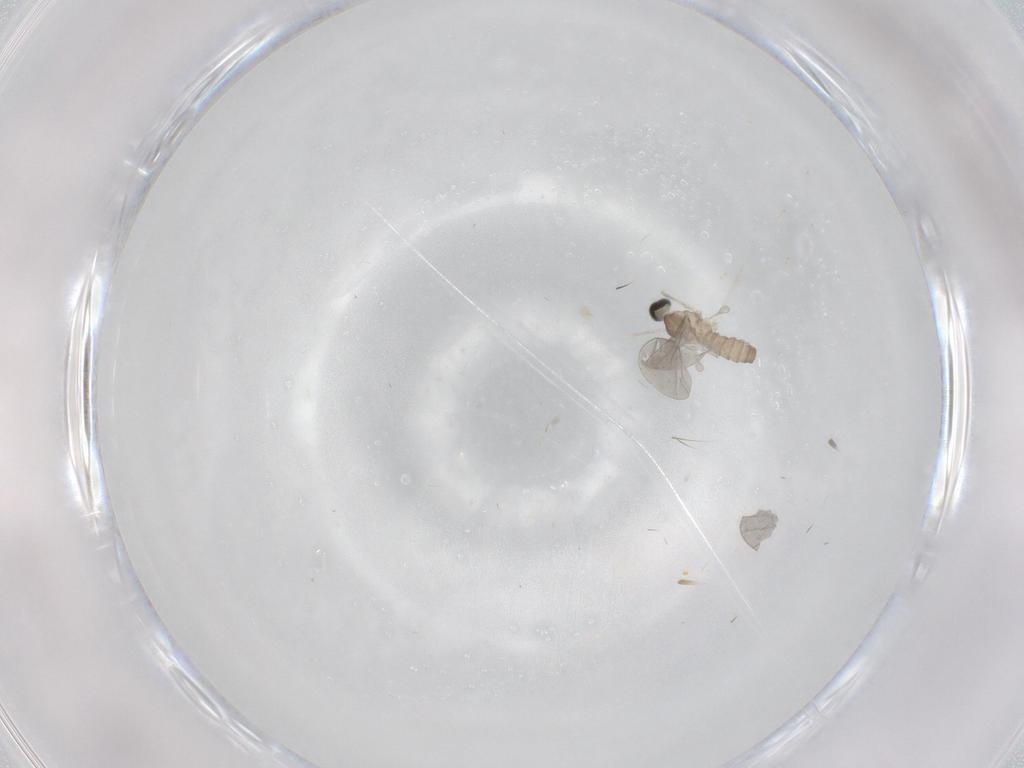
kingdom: Animalia
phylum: Arthropoda
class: Insecta
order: Diptera
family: Cecidomyiidae
